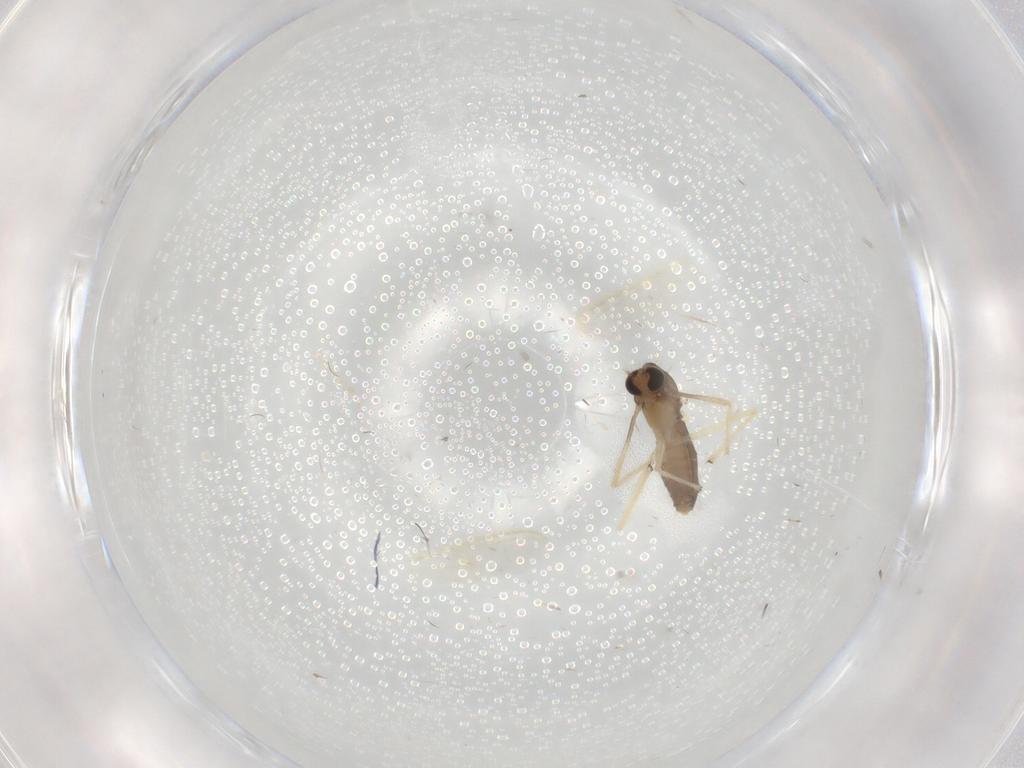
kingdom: Animalia
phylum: Arthropoda
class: Insecta
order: Diptera
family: Chironomidae
